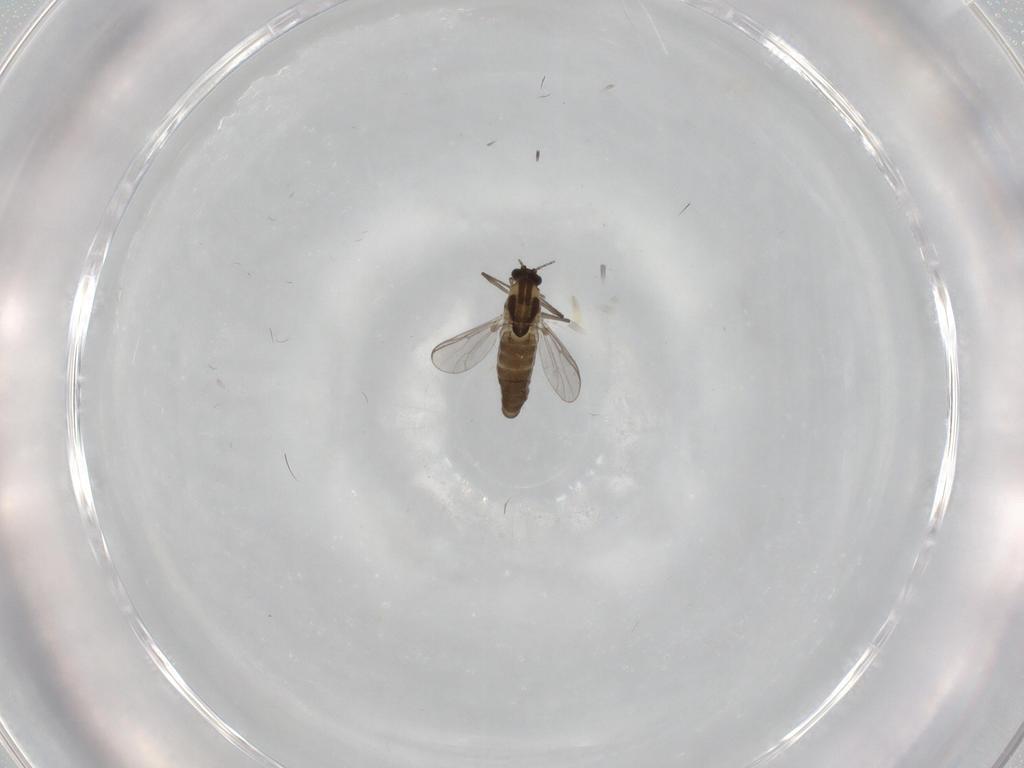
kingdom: Animalia
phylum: Arthropoda
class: Insecta
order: Diptera
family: Chironomidae
